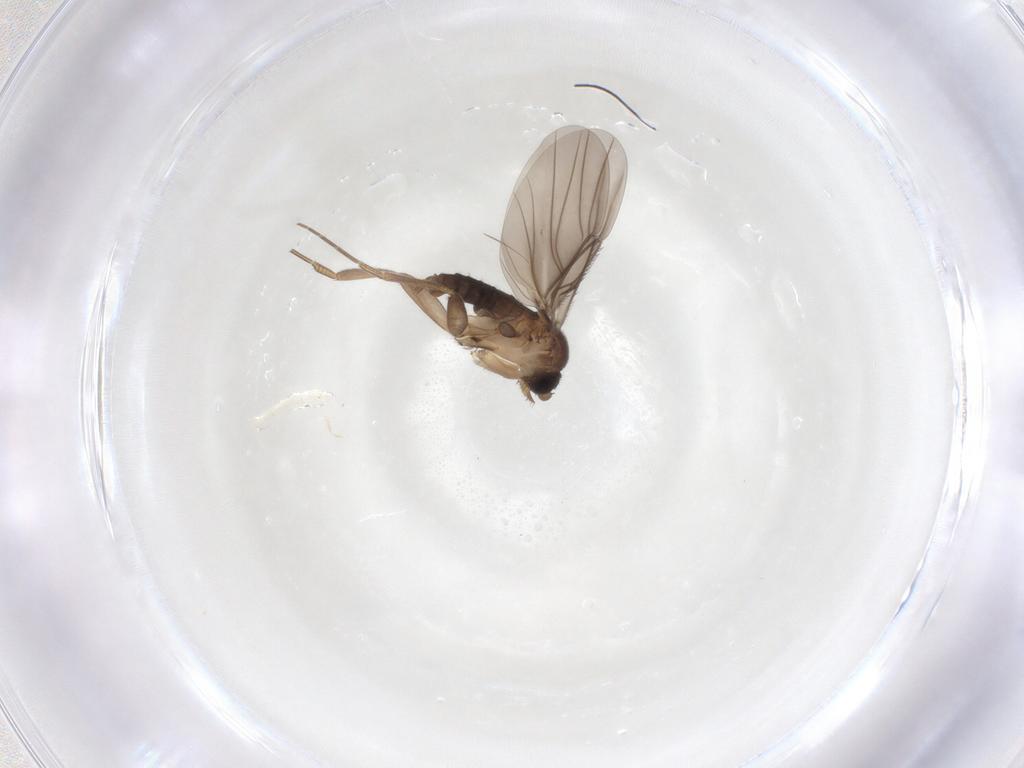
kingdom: Animalia
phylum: Arthropoda
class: Insecta
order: Diptera
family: Phoridae
